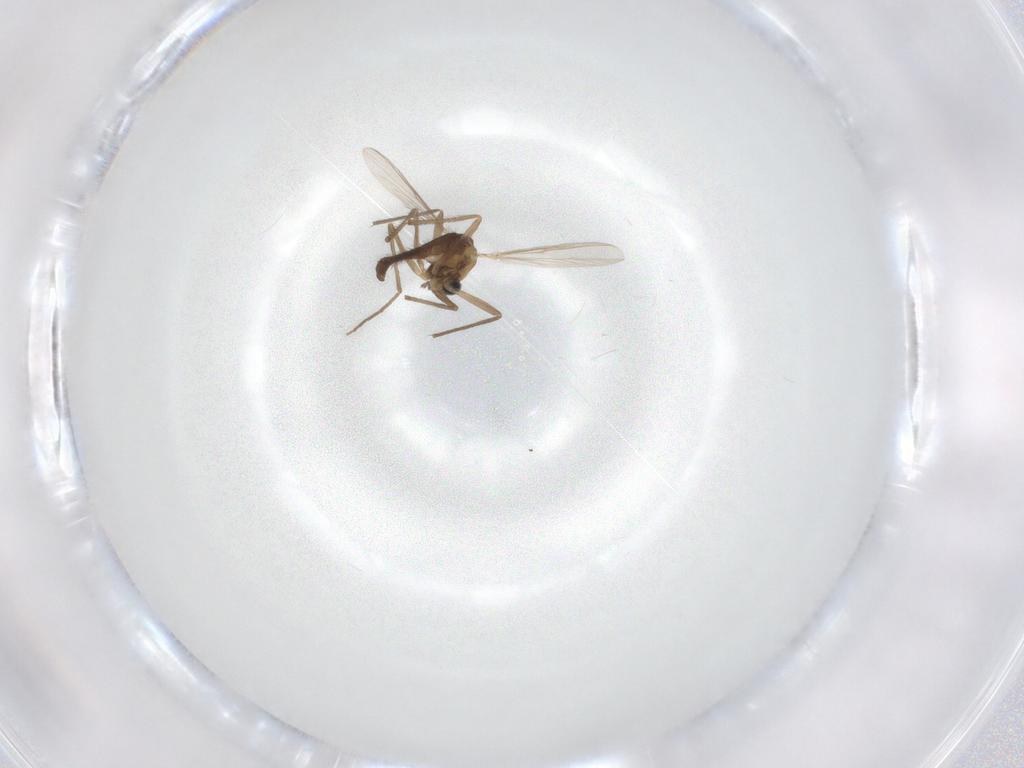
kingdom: Animalia
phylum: Arthropoda
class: Insecta
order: Diptera
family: Chironomidae
